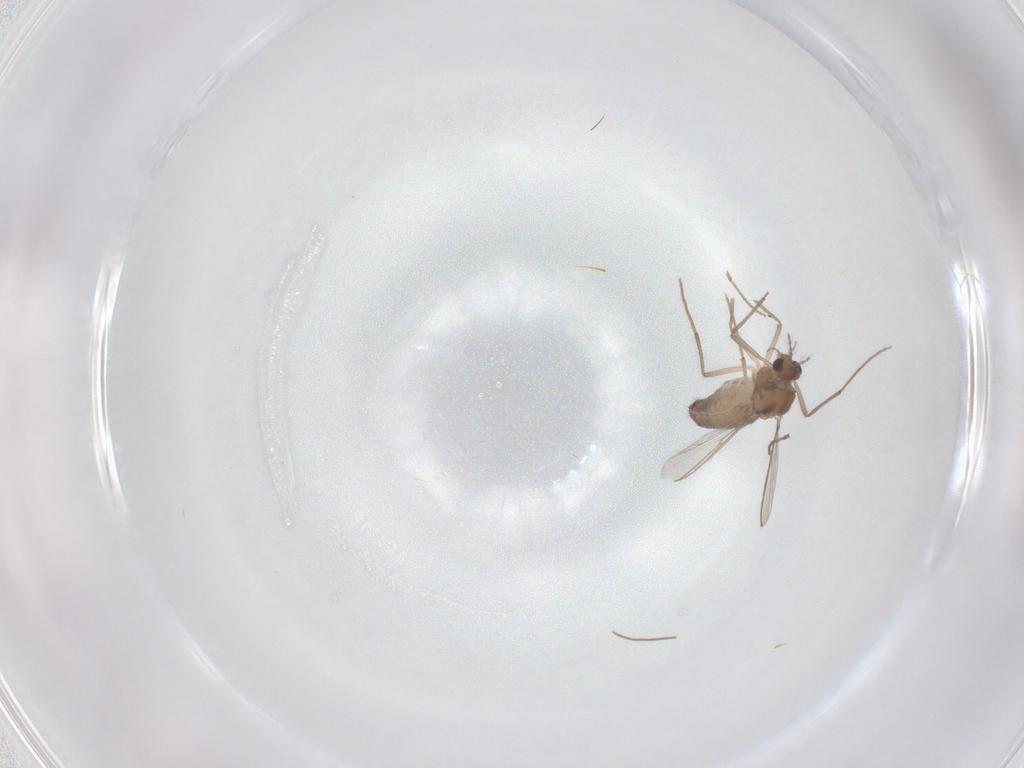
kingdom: Animalia
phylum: Arthropoda
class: Insecta
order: Diptera
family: Chironomidae
